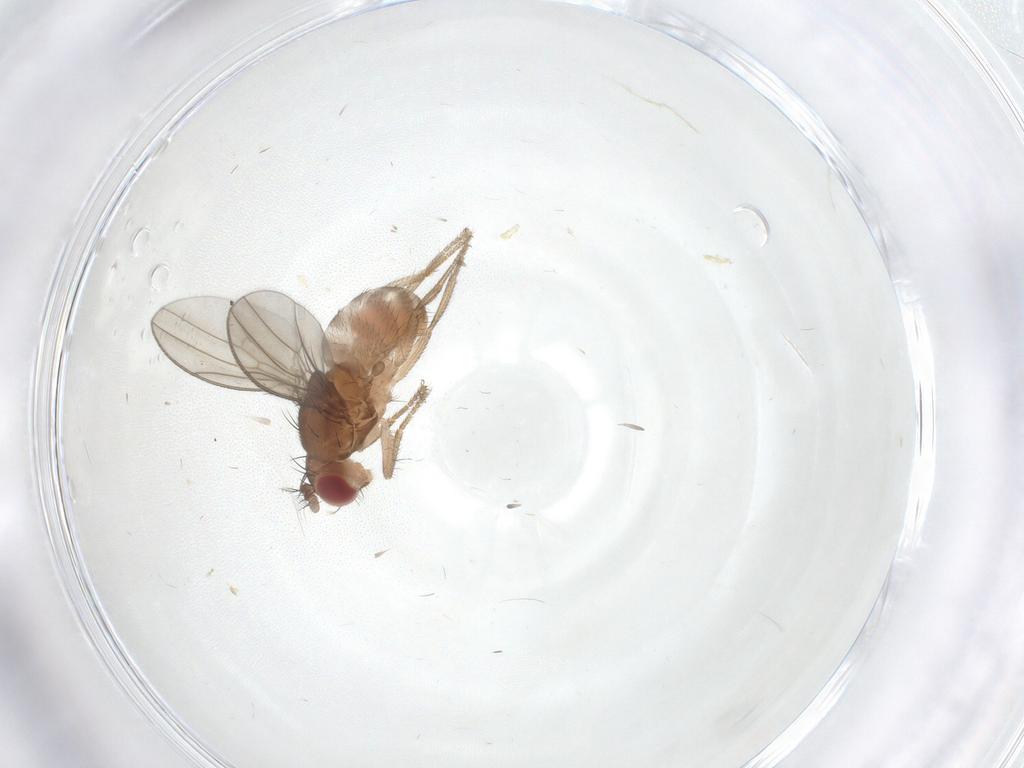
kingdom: Animalia
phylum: Arthropoda
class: Insecta
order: Diptera
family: Drosophilidae
